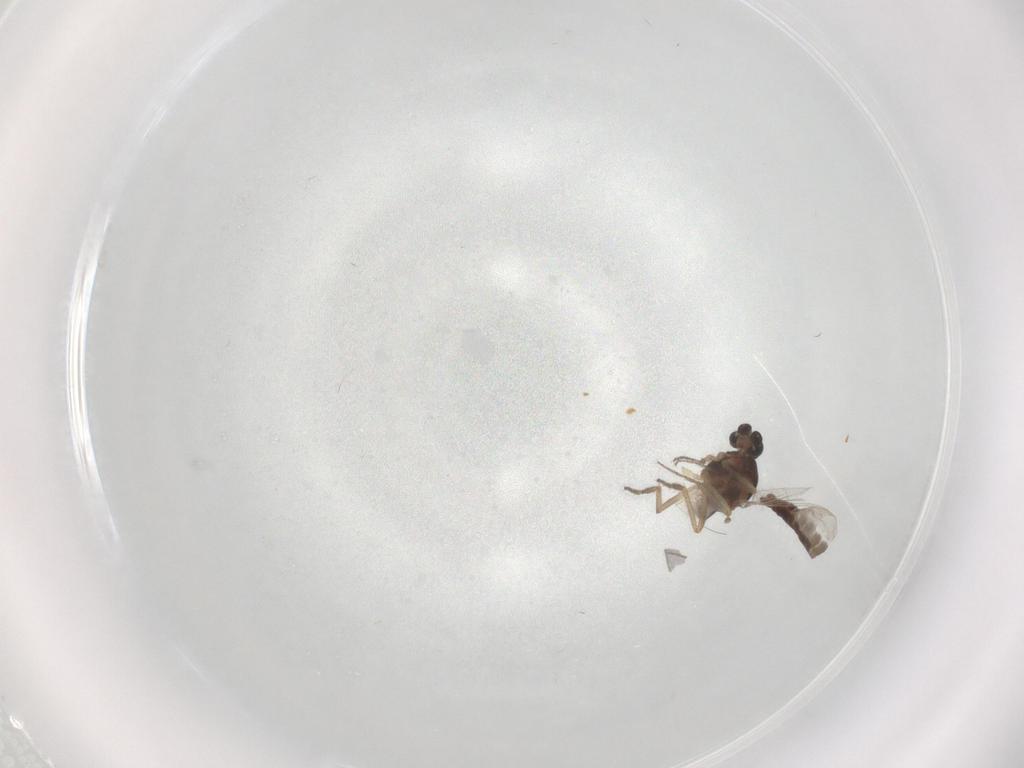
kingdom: Animalia
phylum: Arthropoda
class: Insecta
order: Diptera
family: Ceratopogonidae
